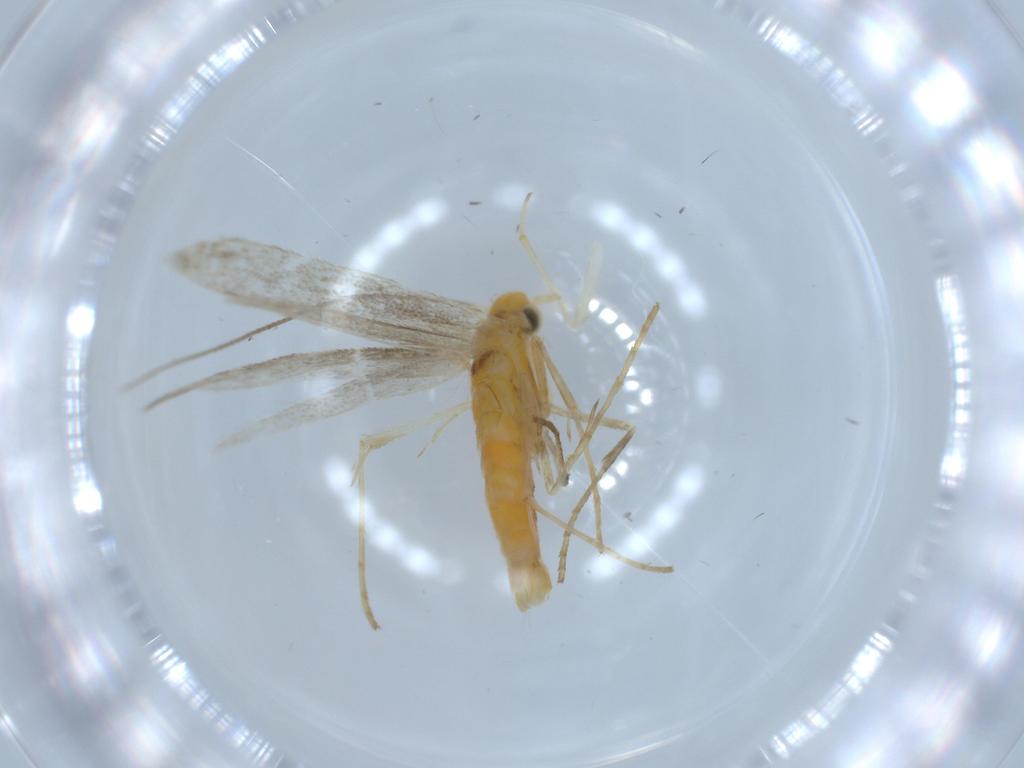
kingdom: Animalia
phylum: Arthropoda
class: Insecta
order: Lepidoptera
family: Gracillariidae
